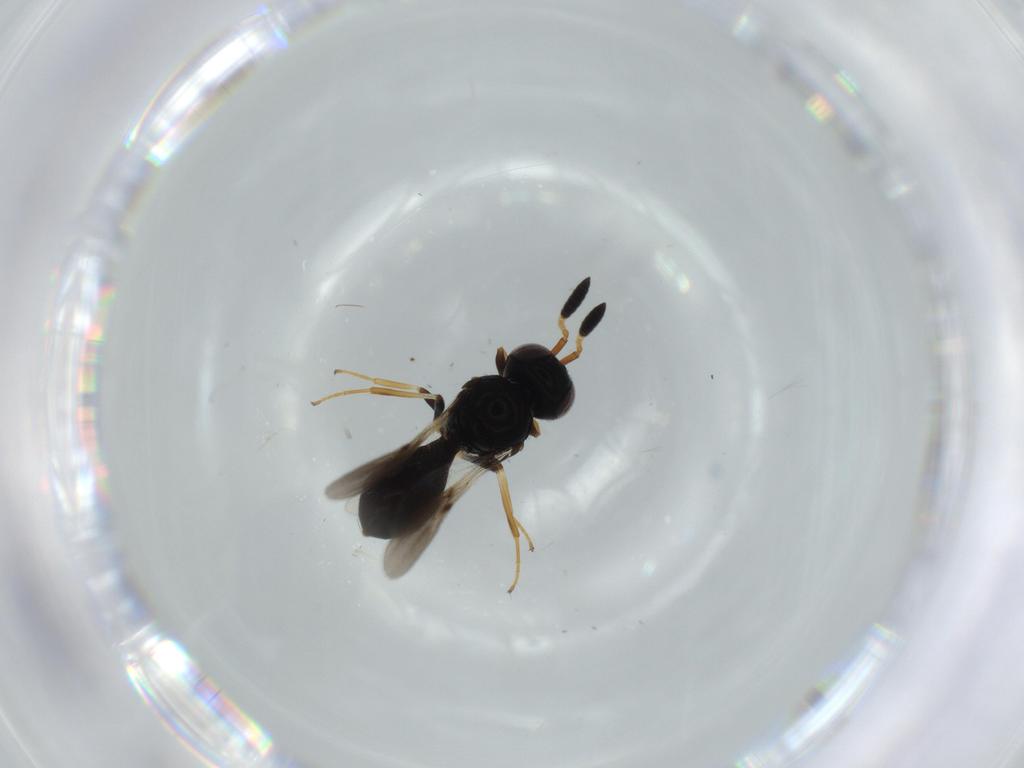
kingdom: Animalia
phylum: Arthropoda
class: Insecta
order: Hymenoptera
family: Scelionidae
